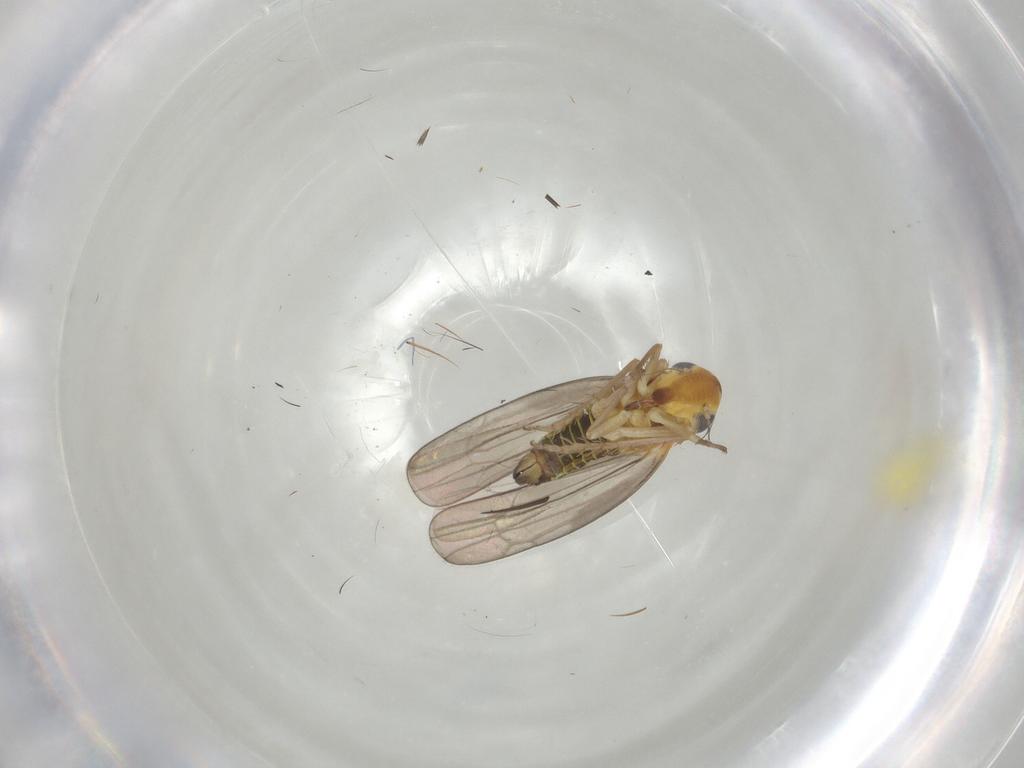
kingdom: Animalia
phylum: Arthropoda
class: Insecta
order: Hemiptera
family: Cicadellidae
